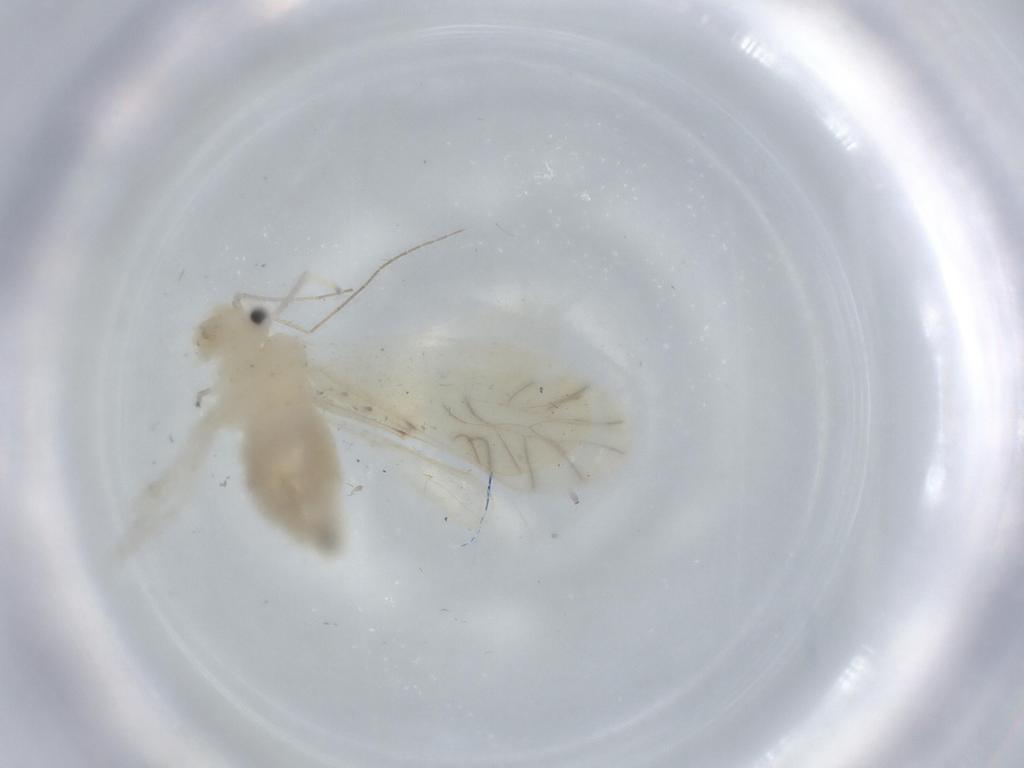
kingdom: Animalia
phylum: Arthropoda
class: Insecta
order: Psocodea
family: Caeciliusidae
